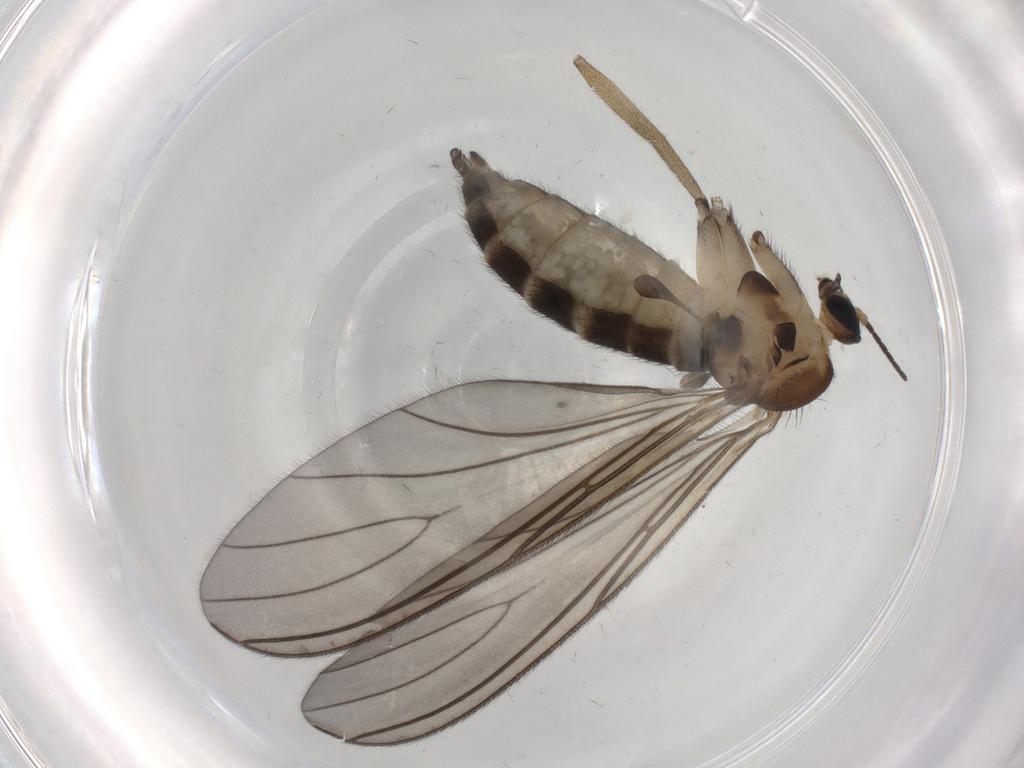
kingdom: Animalia
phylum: Arthropoda
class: Insecta
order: Diptera
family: Sciaridae
